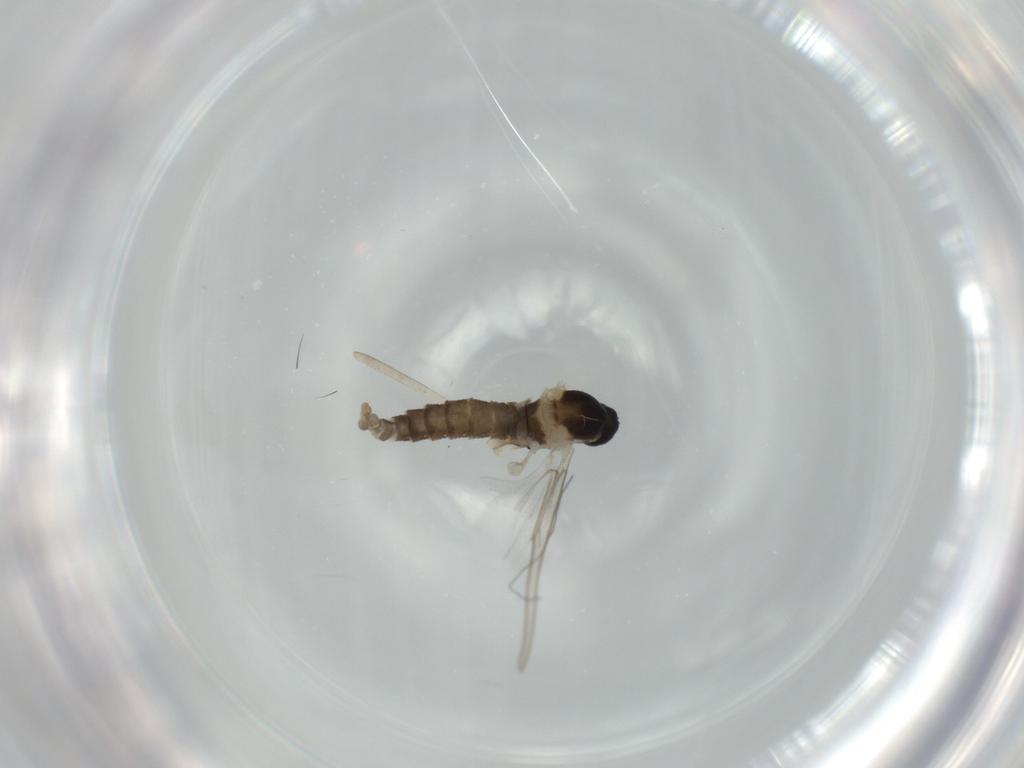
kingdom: Animalia
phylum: Arthropoda
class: Insecta
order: Diptera
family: Cecidomyiidae
